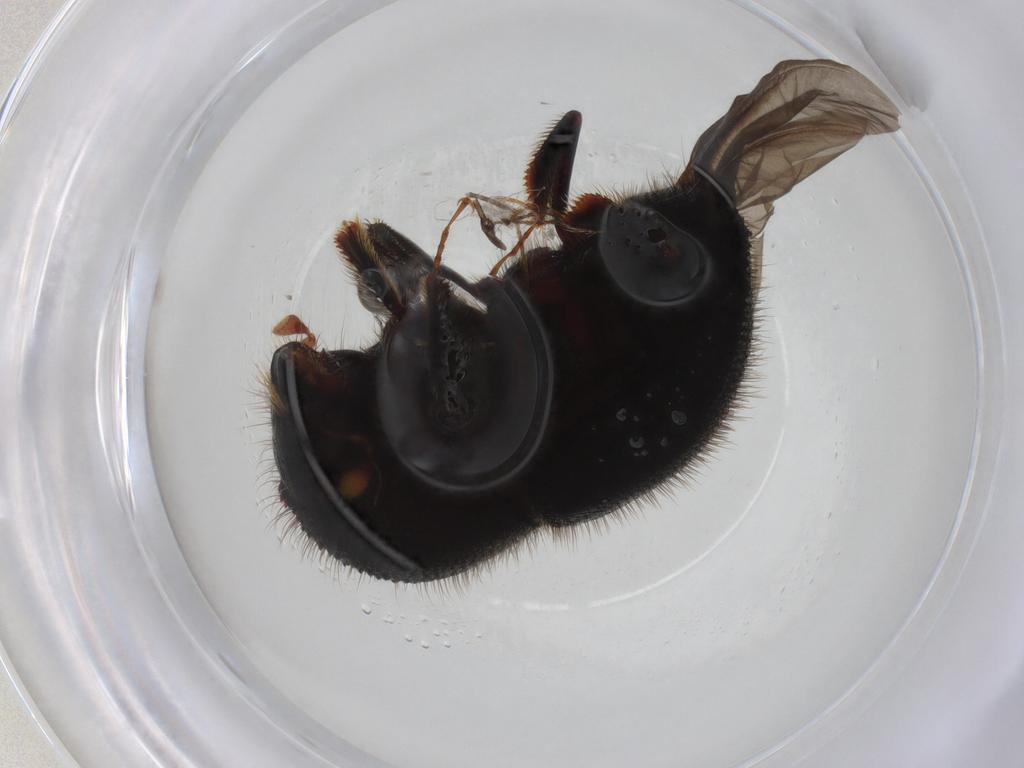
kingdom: Animalia
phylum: Arthropoda
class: Insecta
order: Coleoptera
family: Curculionidae
